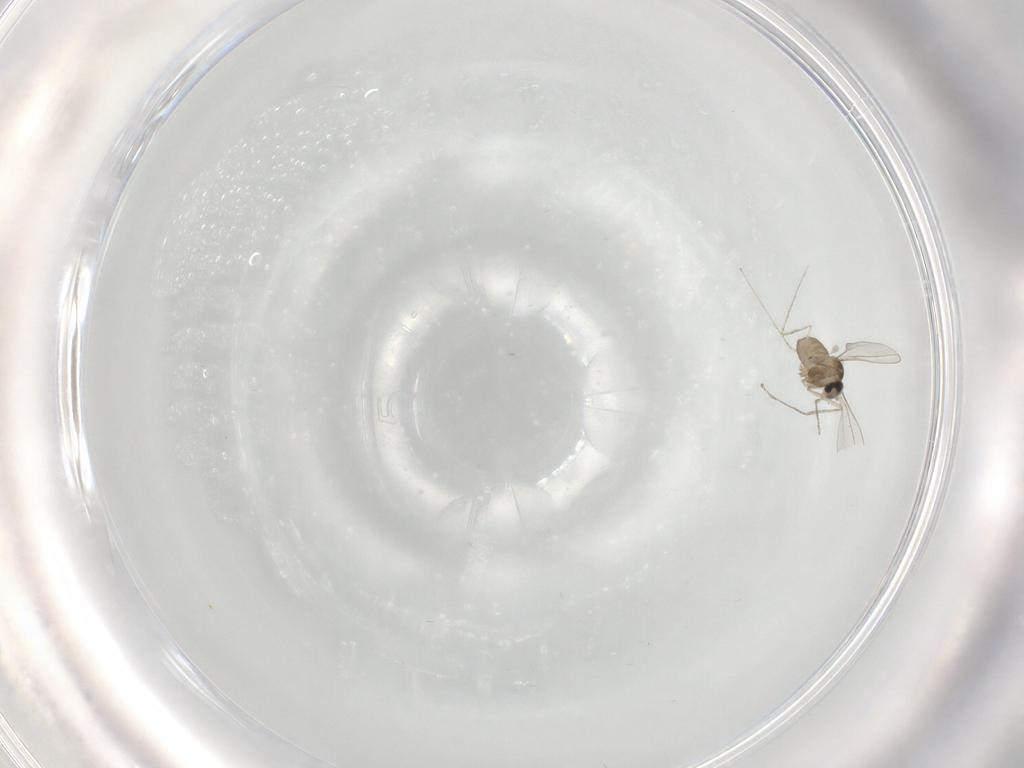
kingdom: Animalia
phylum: Arthropoda
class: Insecta
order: Diptera
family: Cecidomyiidae
